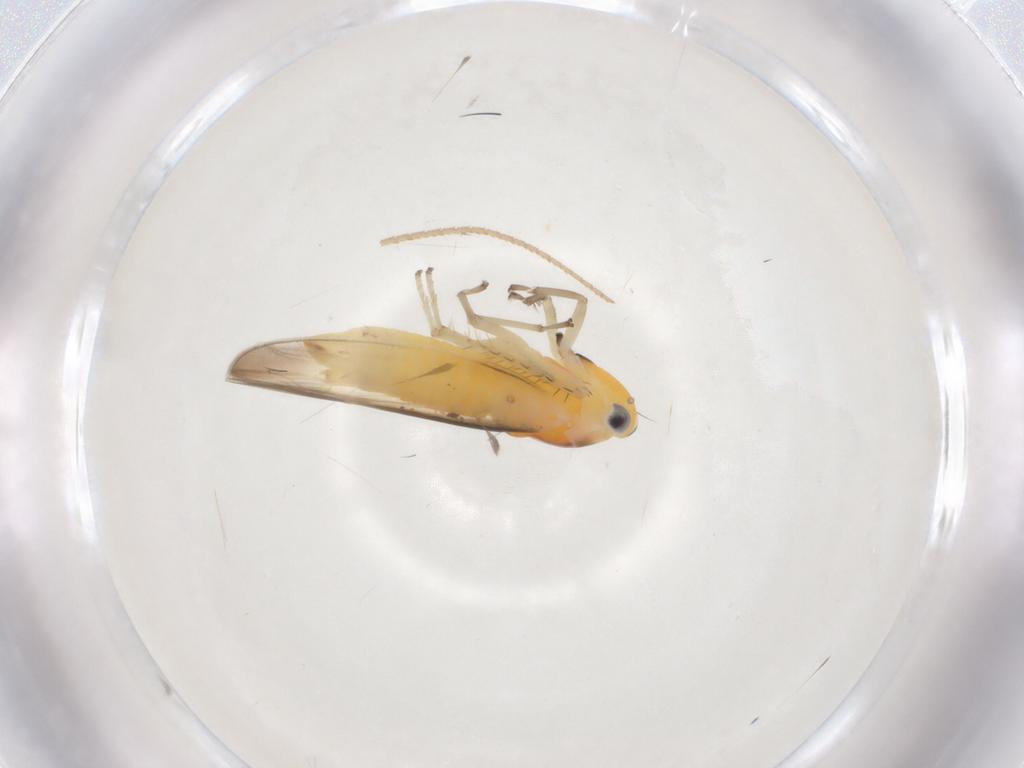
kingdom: Animalia
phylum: Arthropoda
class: Insecta
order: Hemiptera
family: Cicadellidae
